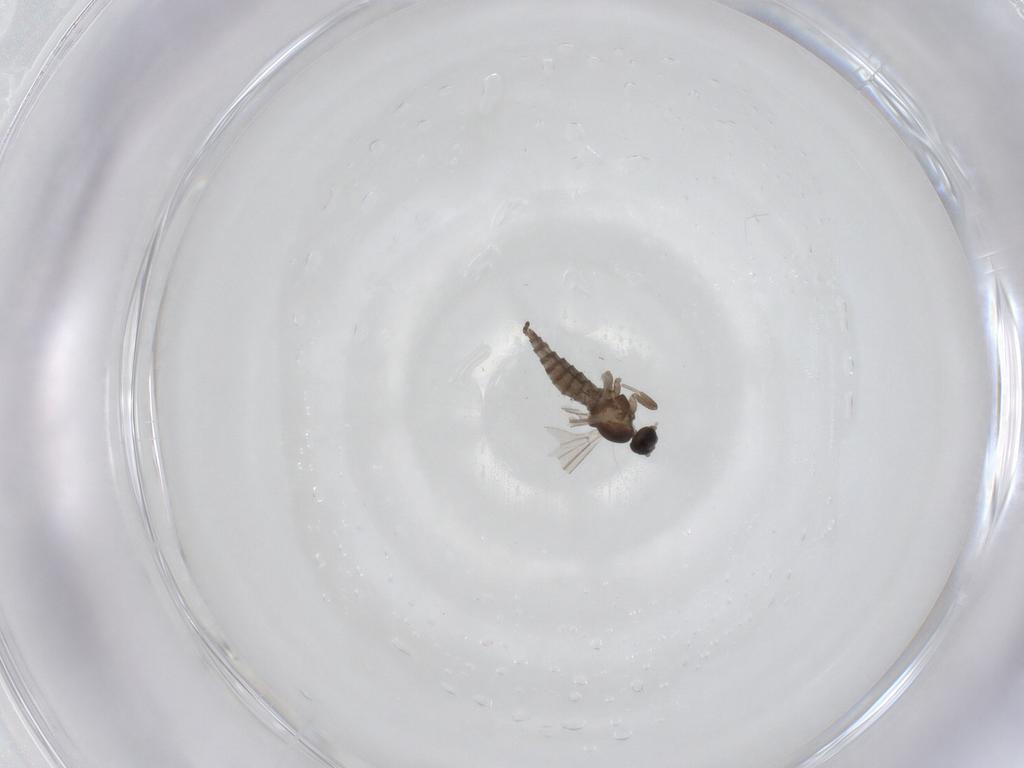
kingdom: Animalia
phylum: Arthropoda
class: Insecta
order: Diptera
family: Cecidomyiidae
